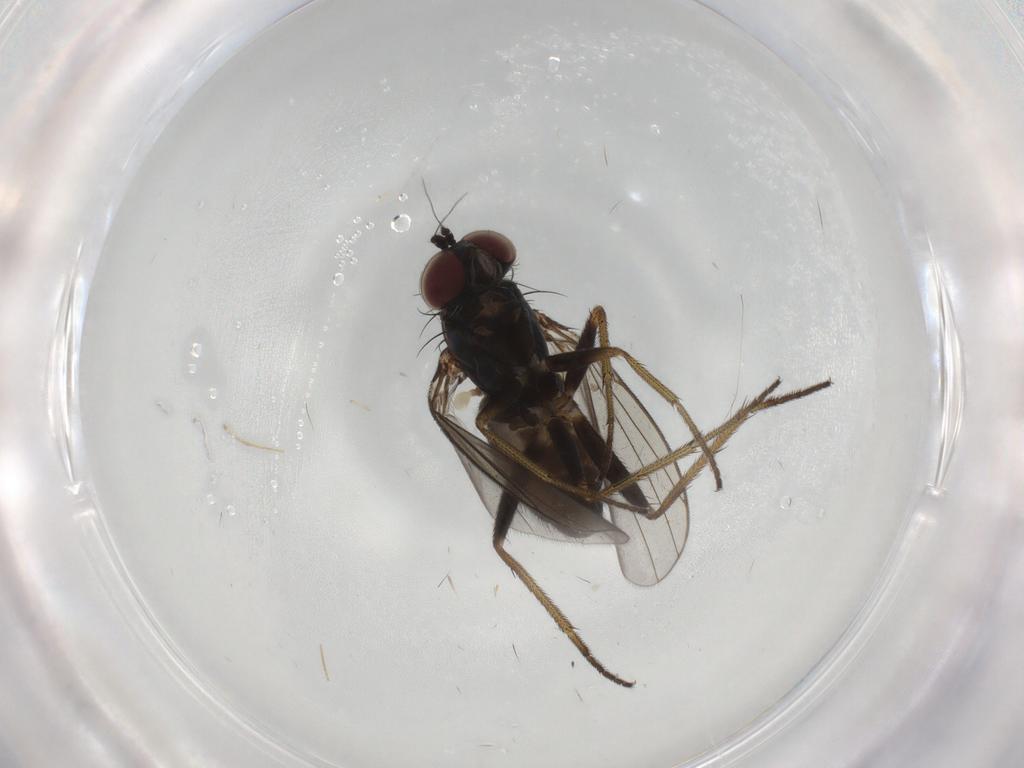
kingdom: Animalia
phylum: Arthropoda
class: Insecta
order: Diptera
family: Dolichopodidae
